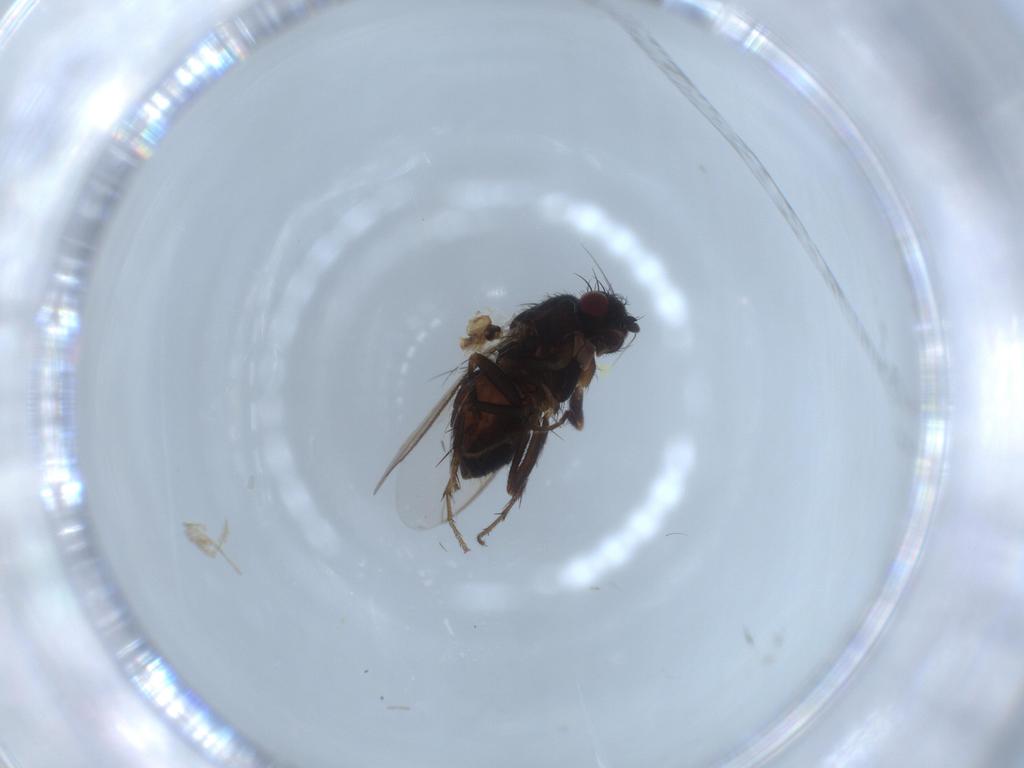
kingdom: Animalia
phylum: Arthropoda
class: Insecta
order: Diptera
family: Sphaeroceridae
